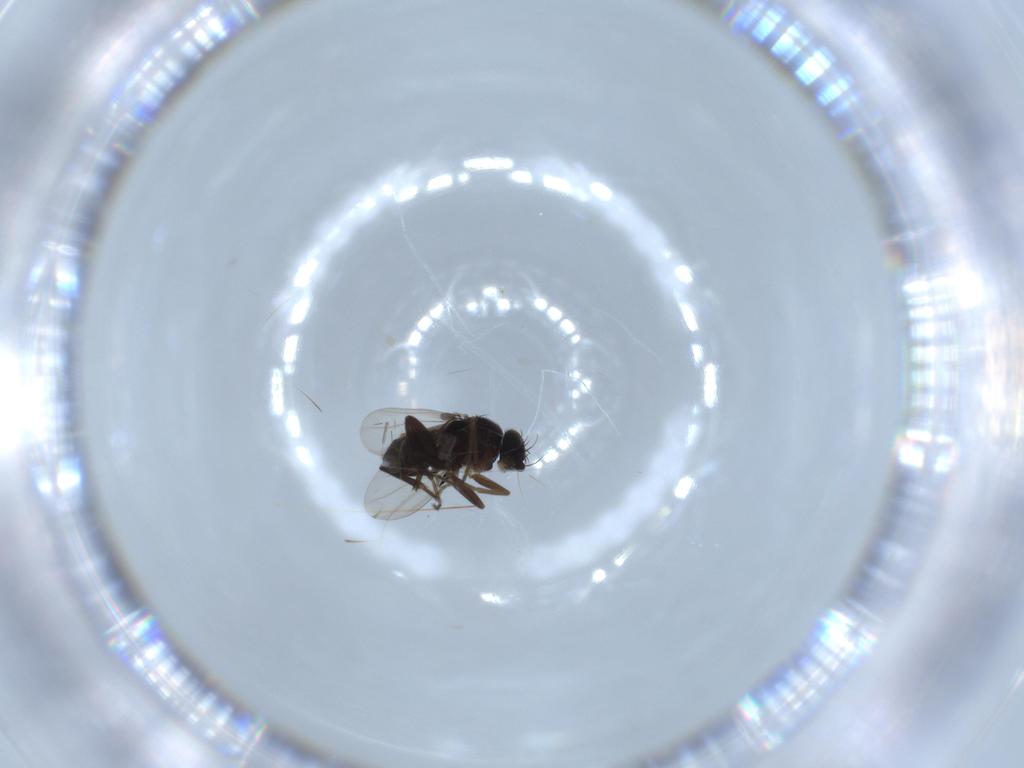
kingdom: Animalia
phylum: Arthropoda
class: Insecta
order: Diptera
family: Phoridae
